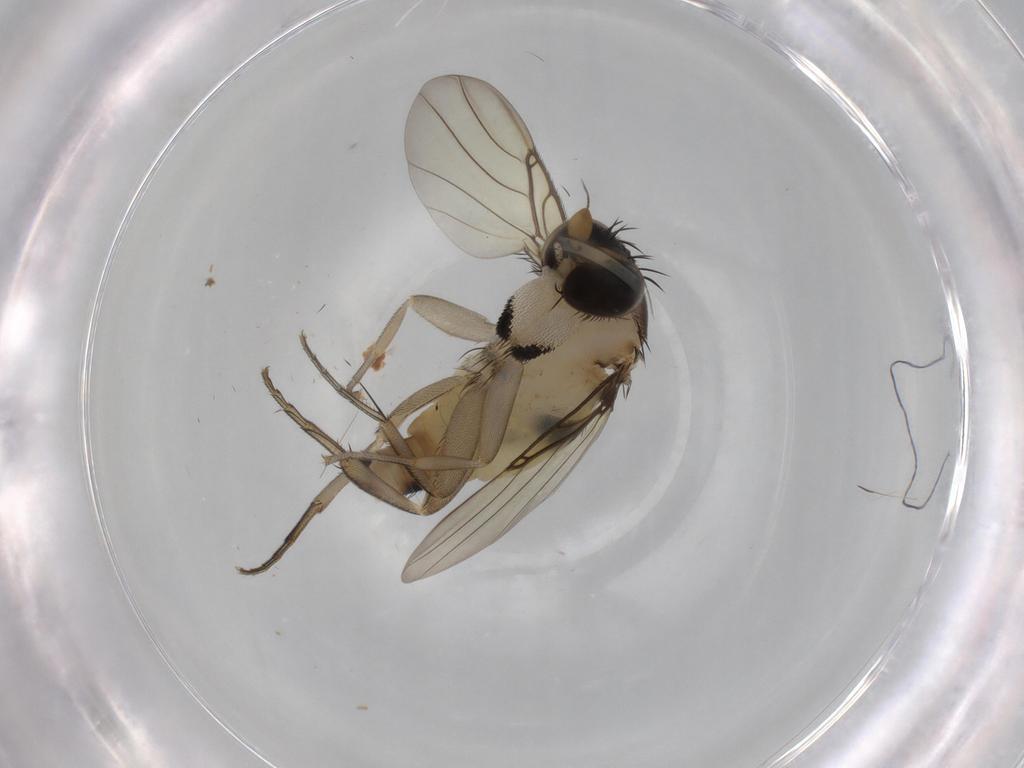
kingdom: Animalia
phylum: Arthropoda
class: Insecta
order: Diptera
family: Phoridae
